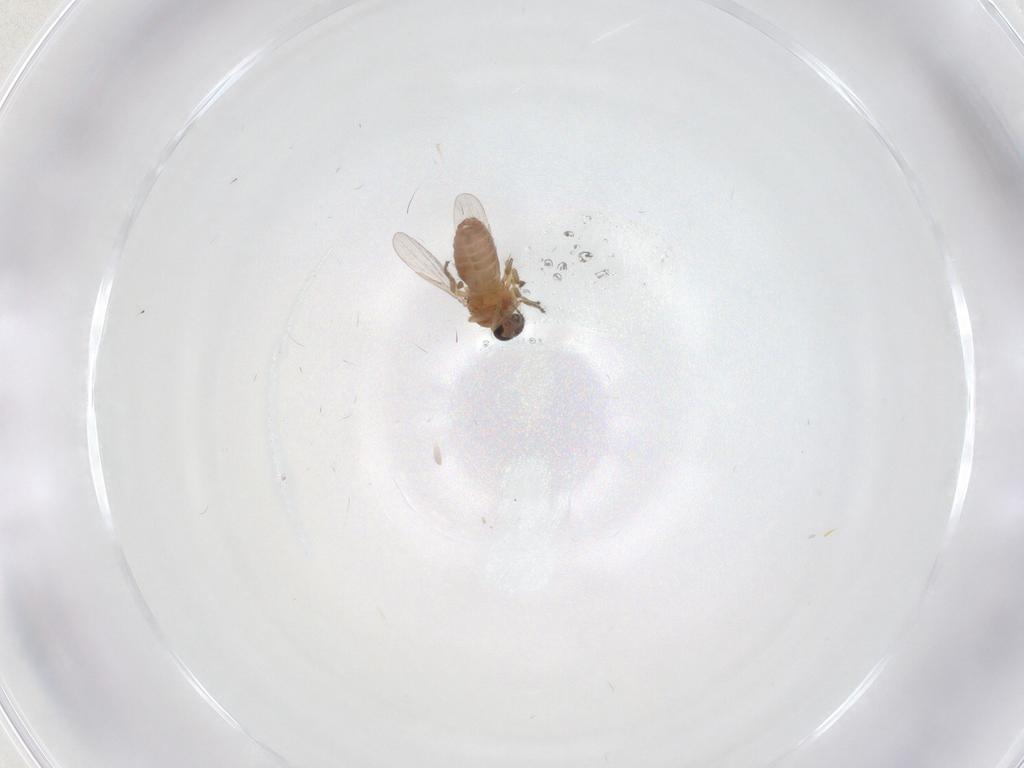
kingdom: Animalia
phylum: Arthropoda
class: Insecta
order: Diptera
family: Ceratopogonidae
